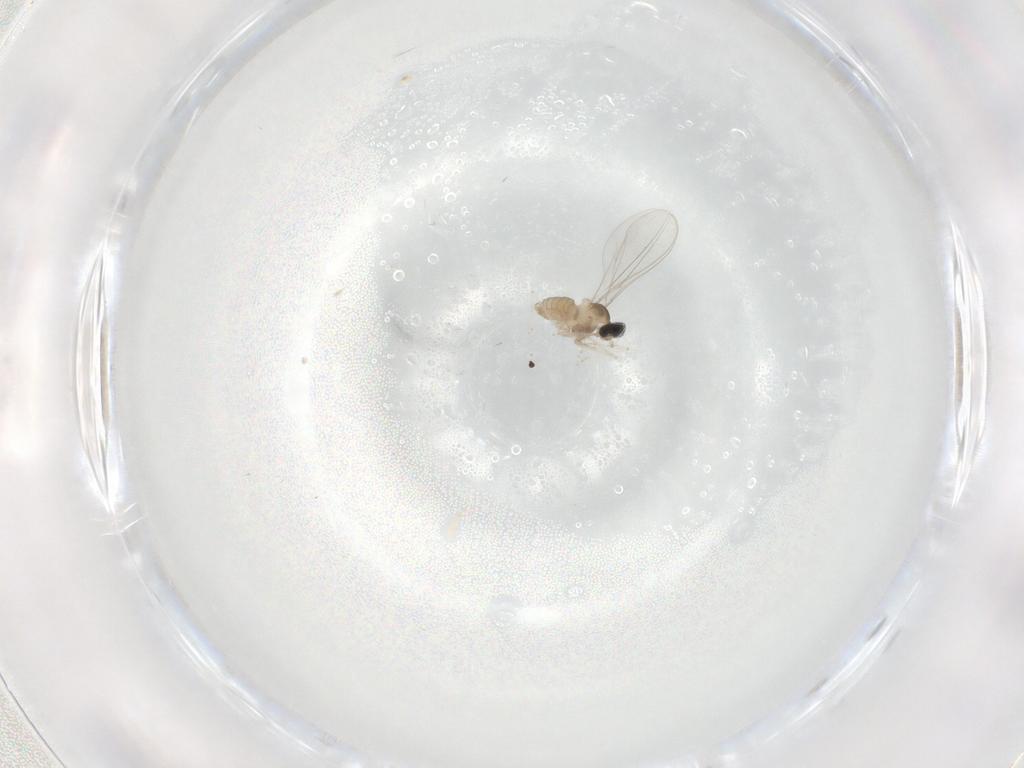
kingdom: Animalia
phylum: Arthropoda
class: Insecta
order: Diptera
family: Cecidomyiidae
